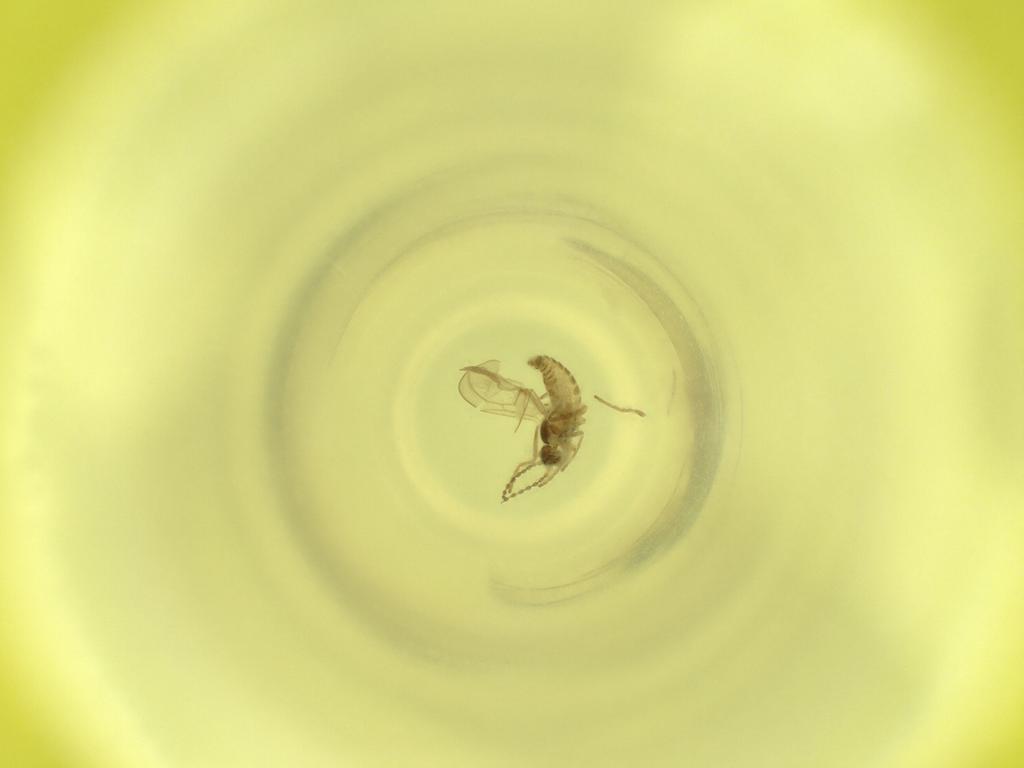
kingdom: Animalia
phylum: Arthropoda
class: Insecta
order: Diptera
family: Cecidomyiidae
